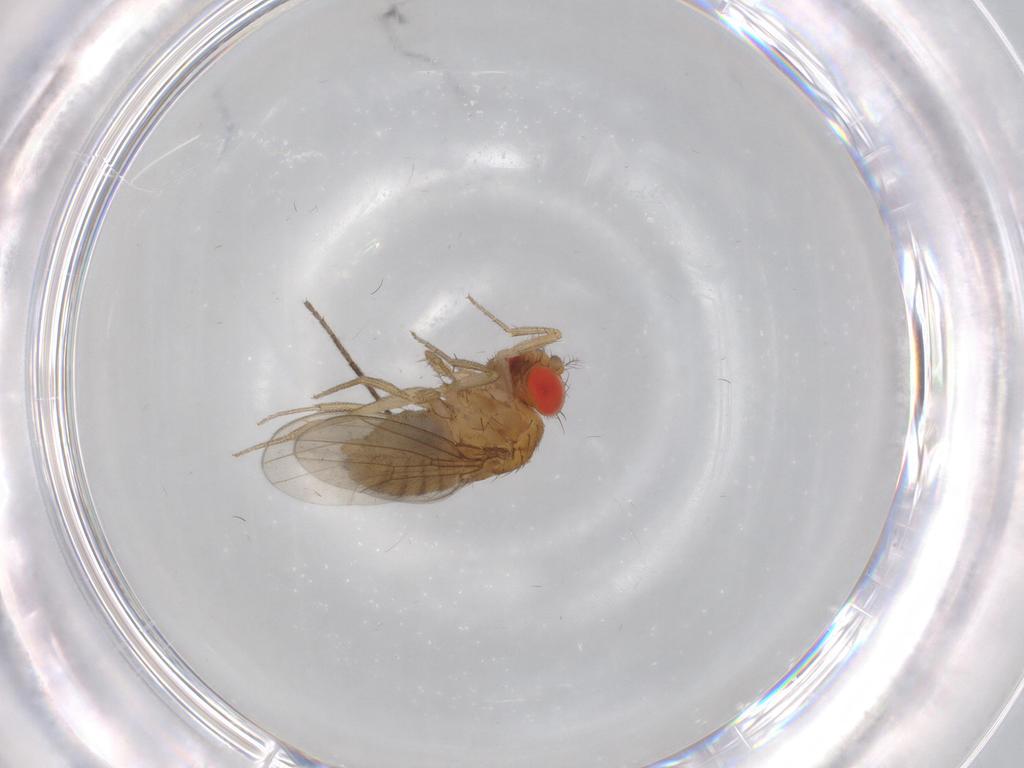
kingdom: Animalia
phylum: Arthropoda
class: Insecta
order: Diptera
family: Drosophilidae
